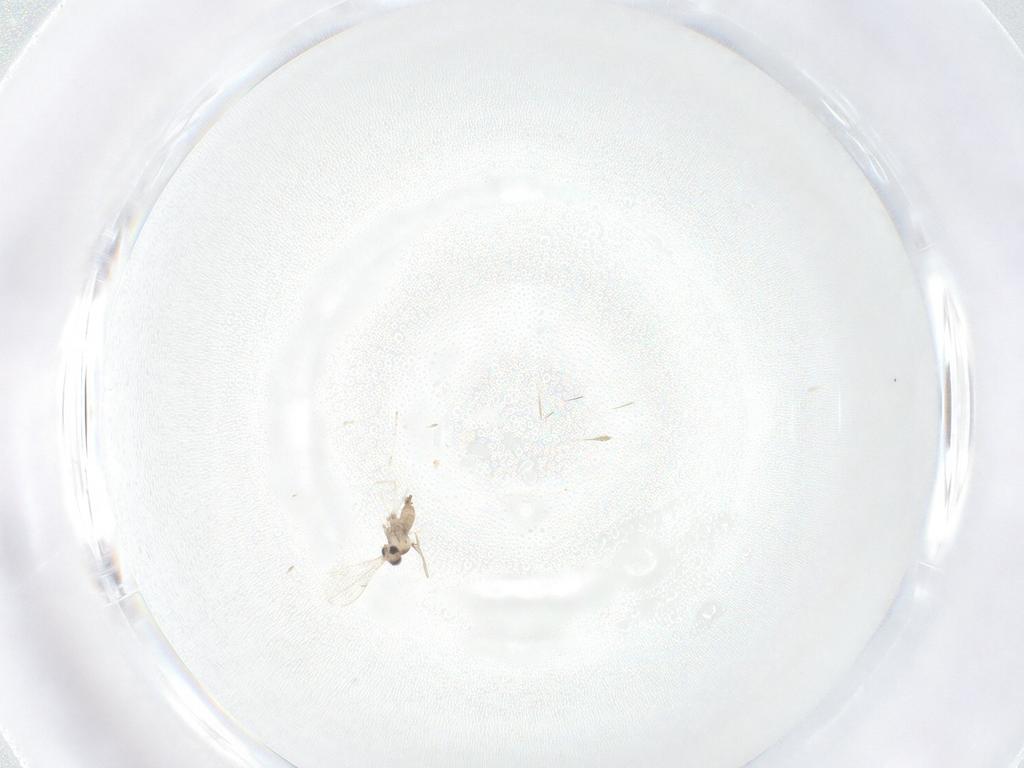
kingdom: Animalia
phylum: Arthropoda
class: Insecta
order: Diptera
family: Cecidomyiidae
